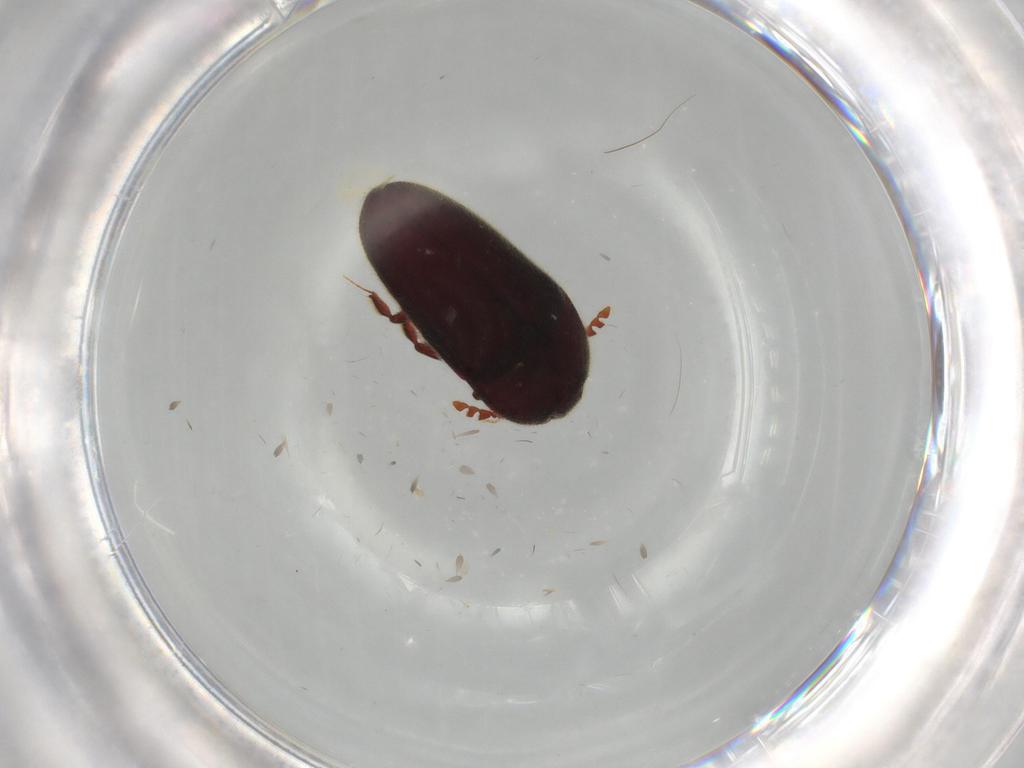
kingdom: Animalia
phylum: Arthropoda
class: Insecta
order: Coleoptera
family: Throscidae
